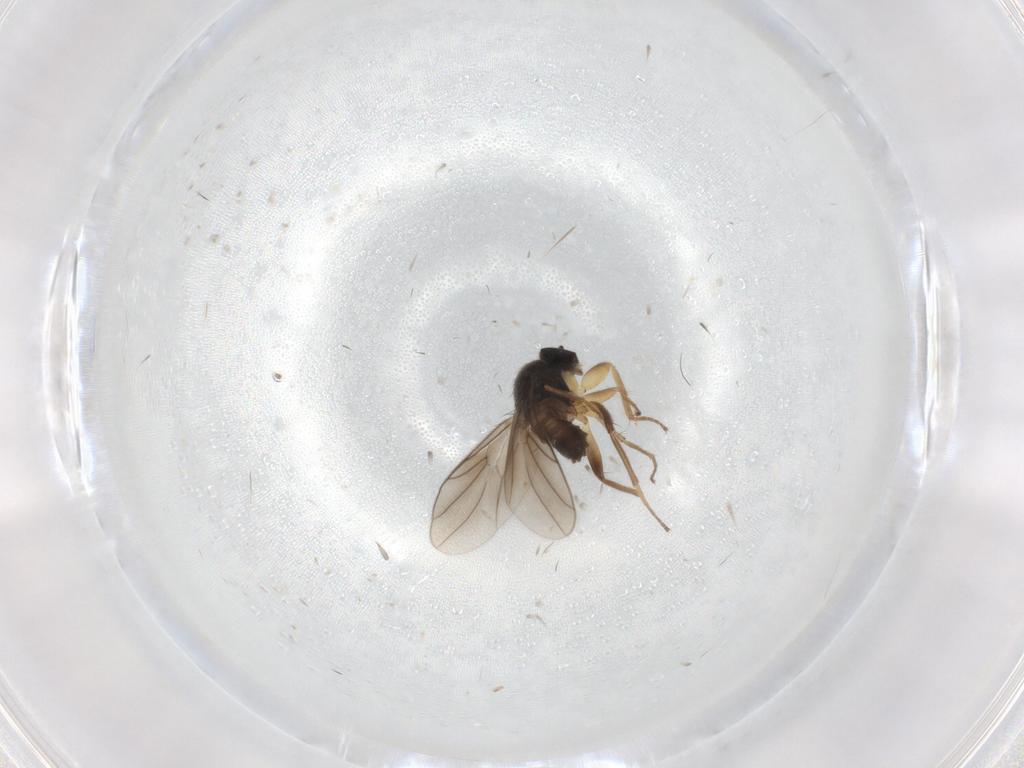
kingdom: Animalia
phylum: Arthropoda
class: Insecta
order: Diptera
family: Hybotidae
